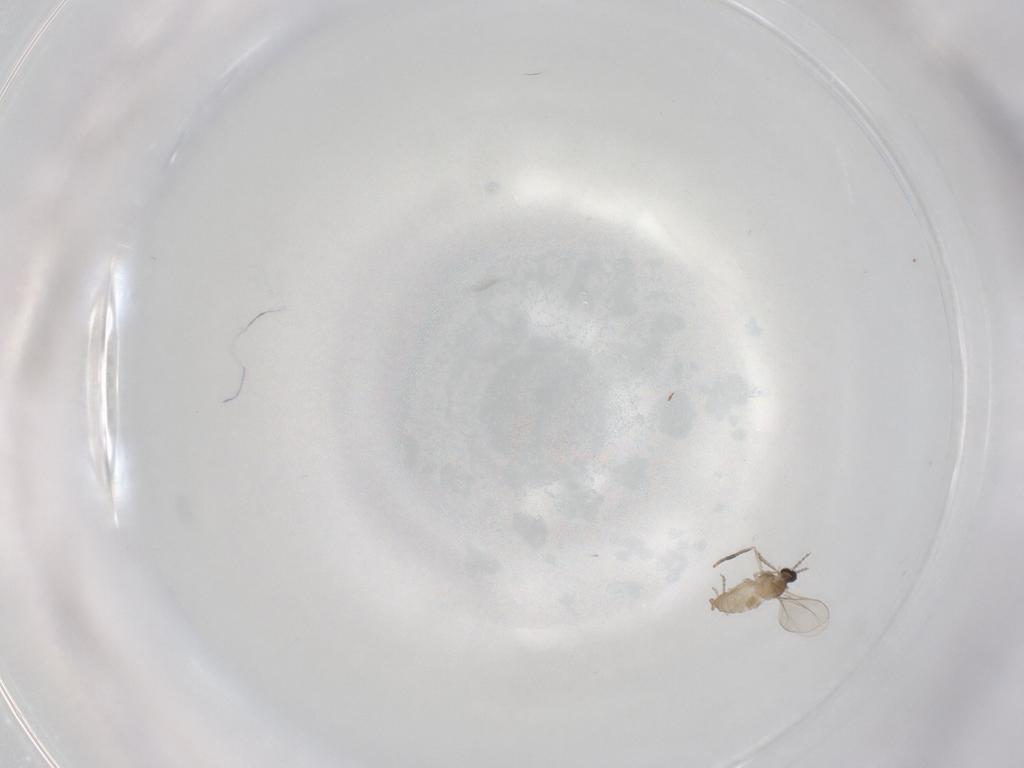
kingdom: Animalia
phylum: Arthropoda
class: Insecta
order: Diptera
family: Cecidomyiidae
